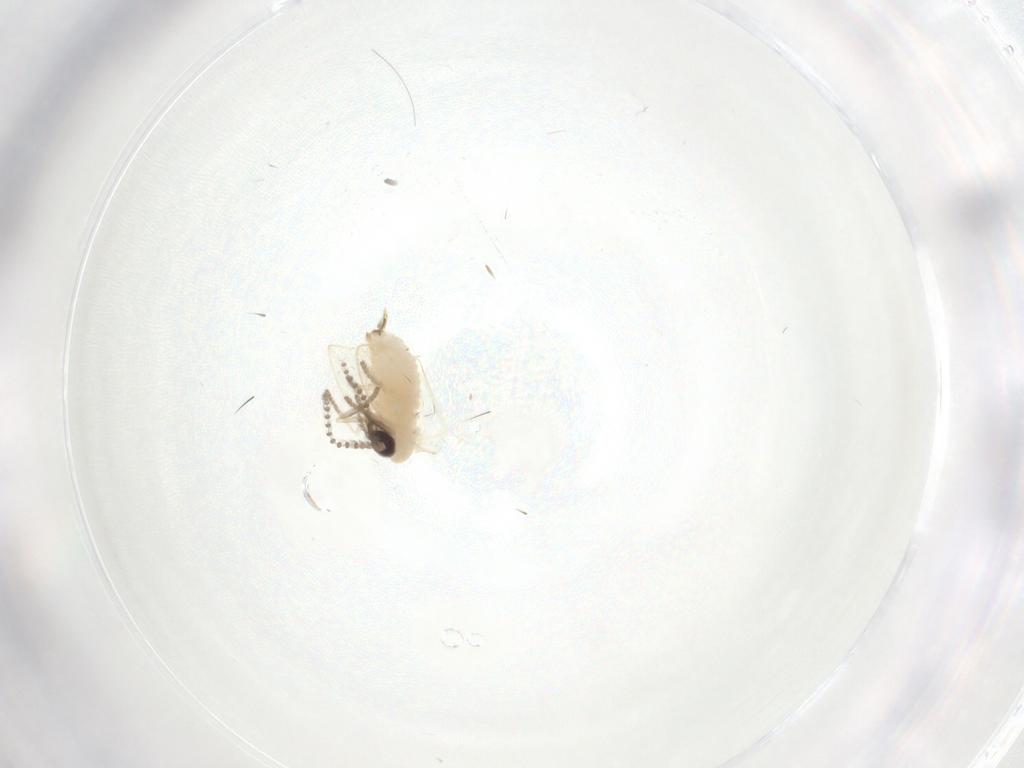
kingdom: Animalia
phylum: Arthropoda
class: Insecta
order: Diptera
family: Psychodidae
